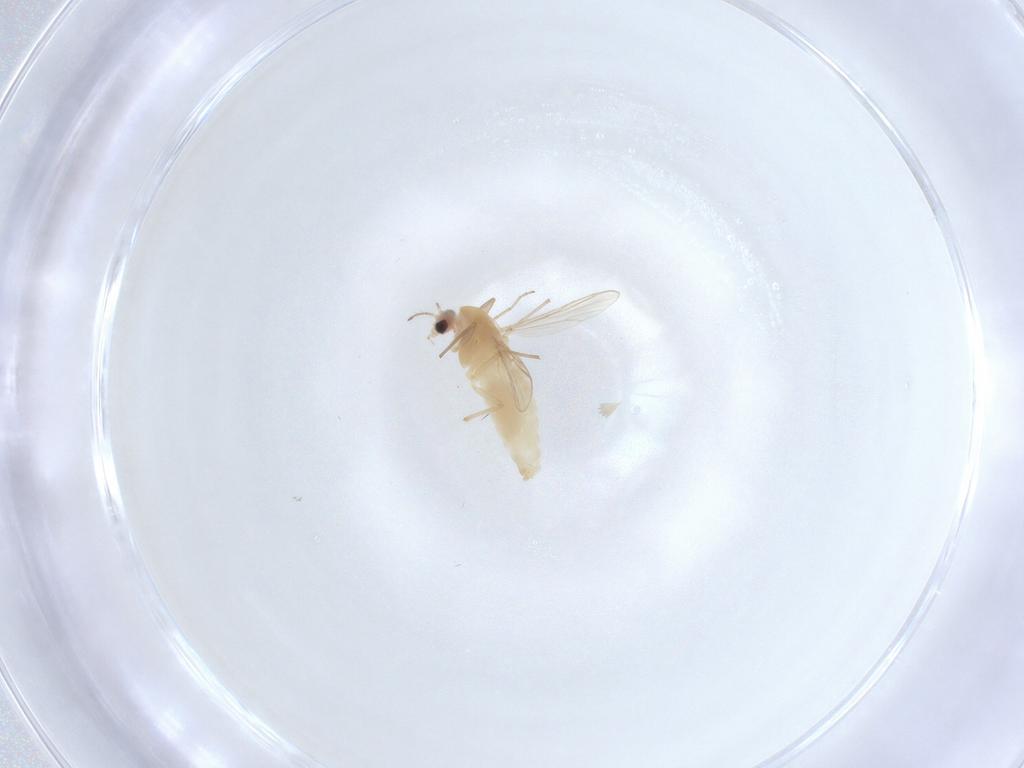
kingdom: Animalia
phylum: Arthropoda
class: Insecta
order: Diptera
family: Chironomidae
